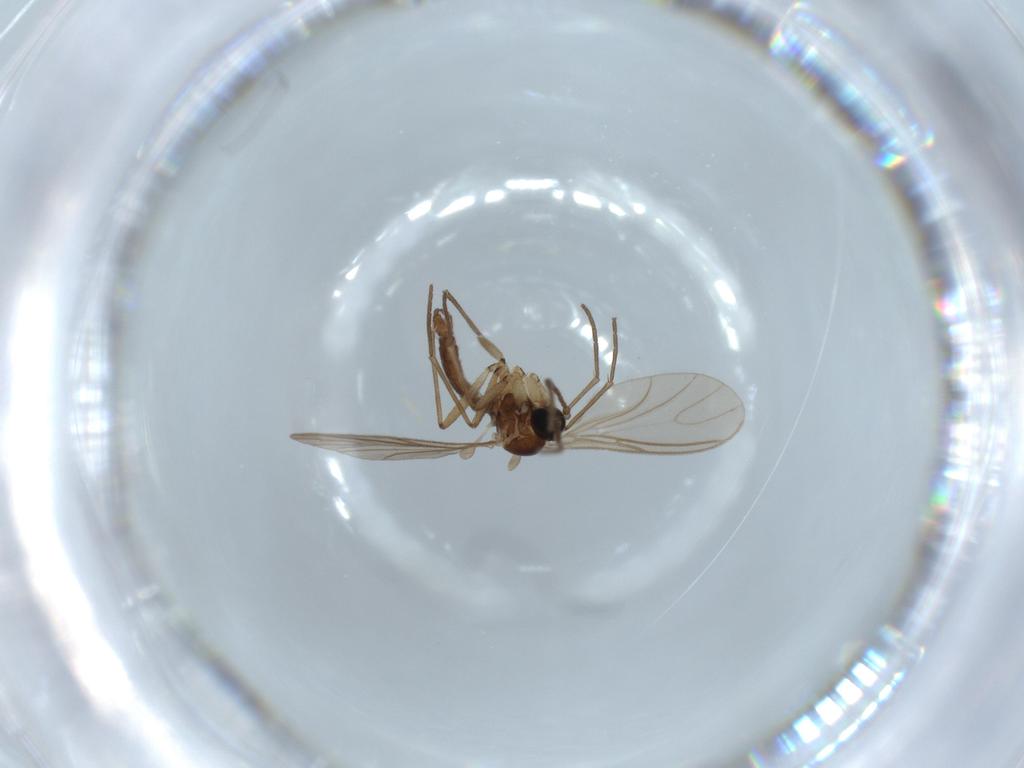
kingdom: Animalia
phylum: Arthropoda
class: Insecta
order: Diptera
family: Sciaridae
